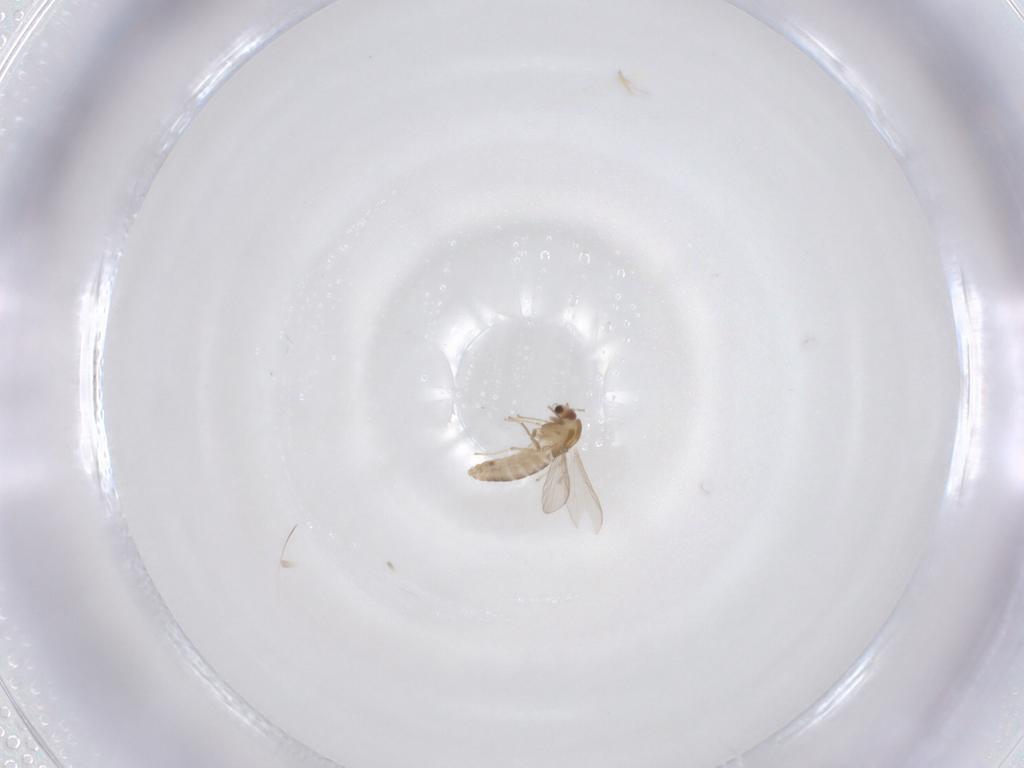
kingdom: Animalia
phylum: Arthropoda
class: Insecta
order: Diptera
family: Chironomidae
